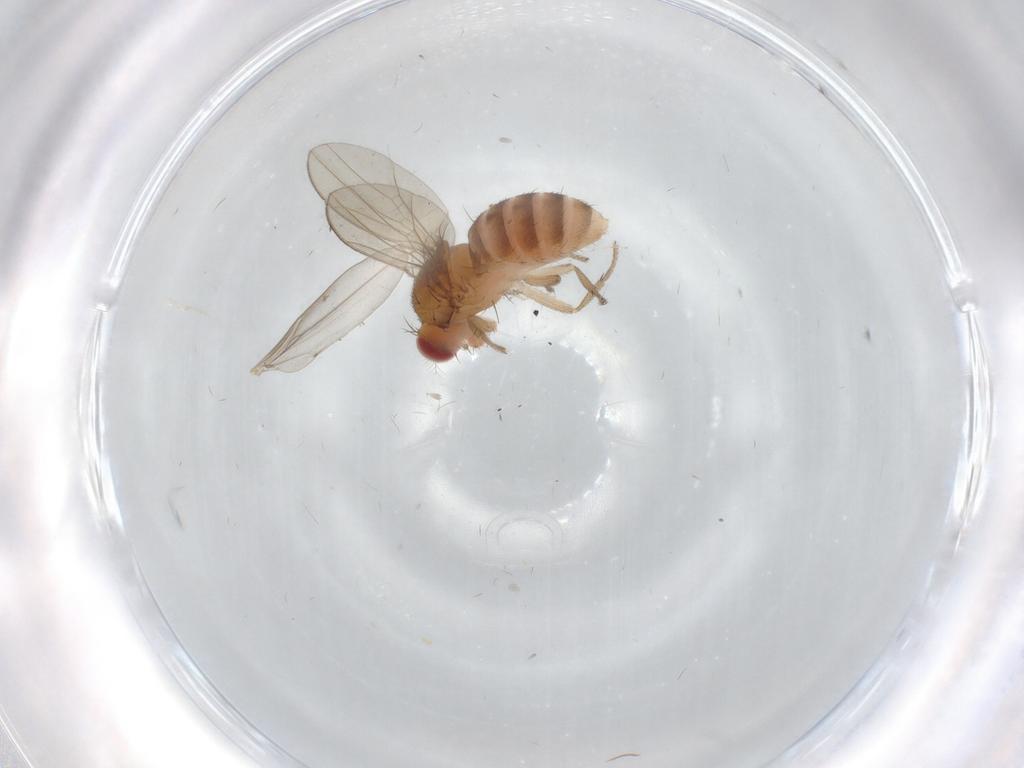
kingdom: Animalia
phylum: Arthropoda
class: Insecta
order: Diptera
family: Drosophilidae
